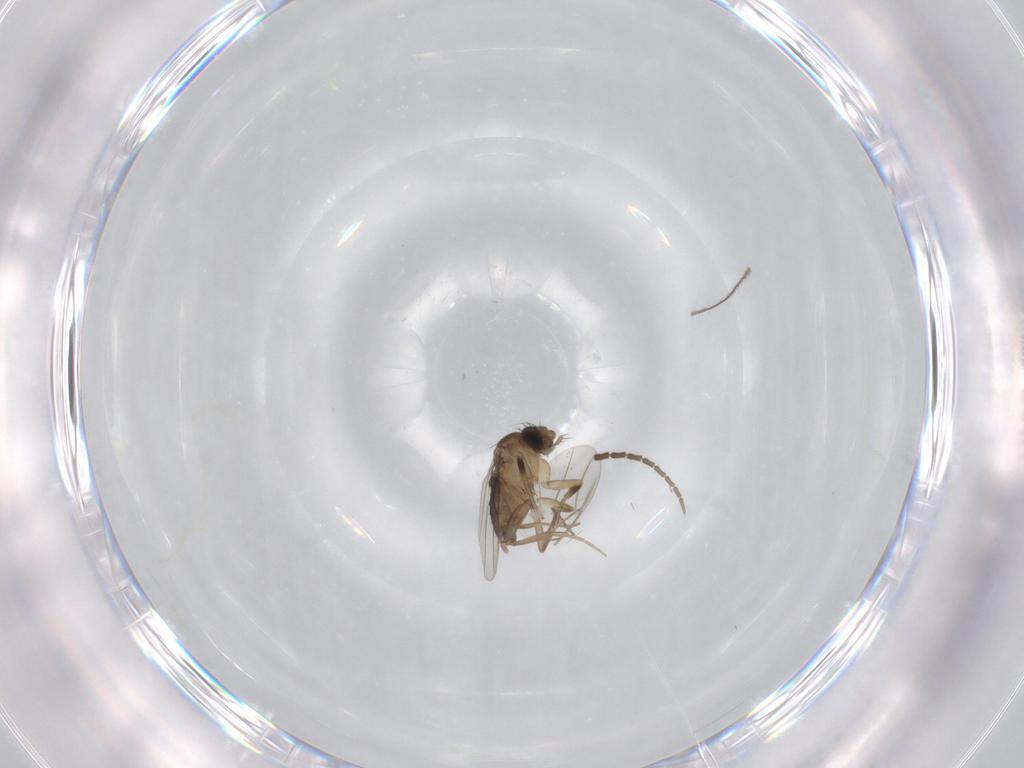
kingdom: Animalia
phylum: Arthropoda
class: Insecta
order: Diptera
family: Phoridae
